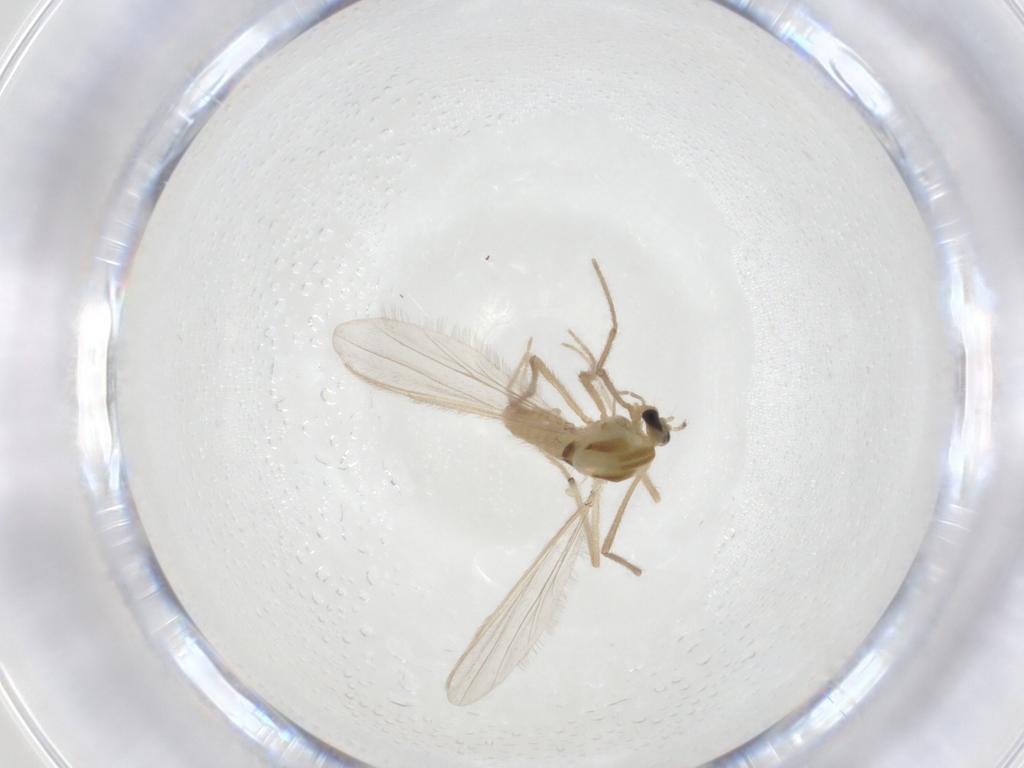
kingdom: Animalia
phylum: Arthropoda
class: Insecta
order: Diptera
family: Chironomidae
